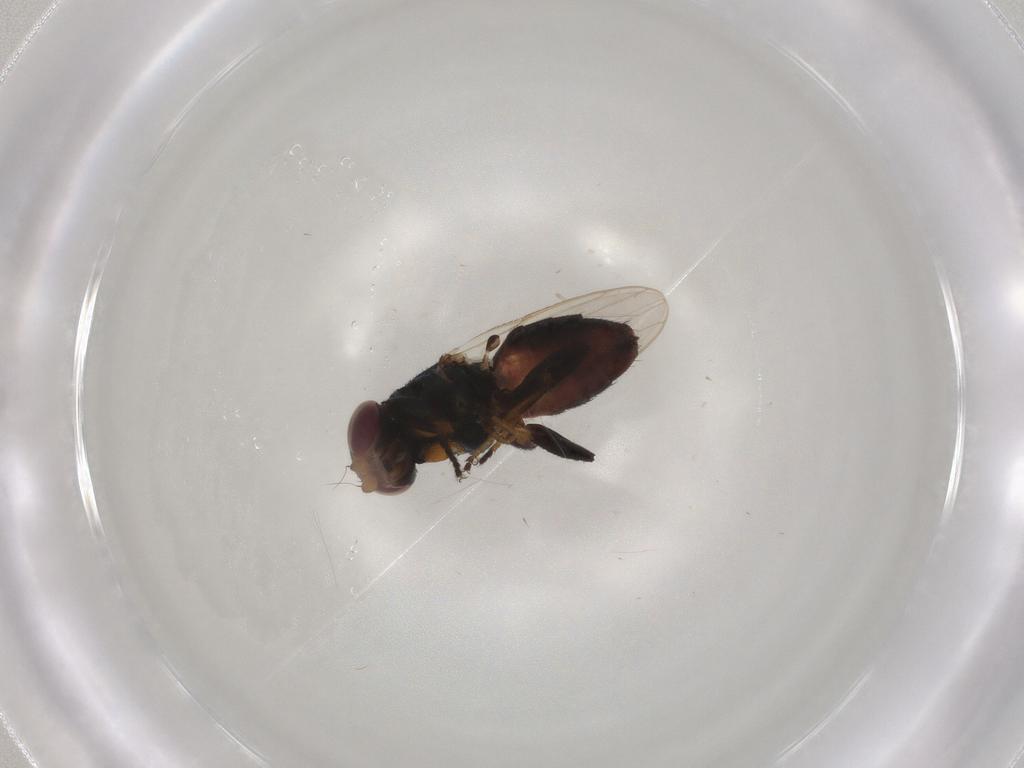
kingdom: Animalia
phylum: Arthropoda
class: Insecta
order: Diptera
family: Chloropidae
